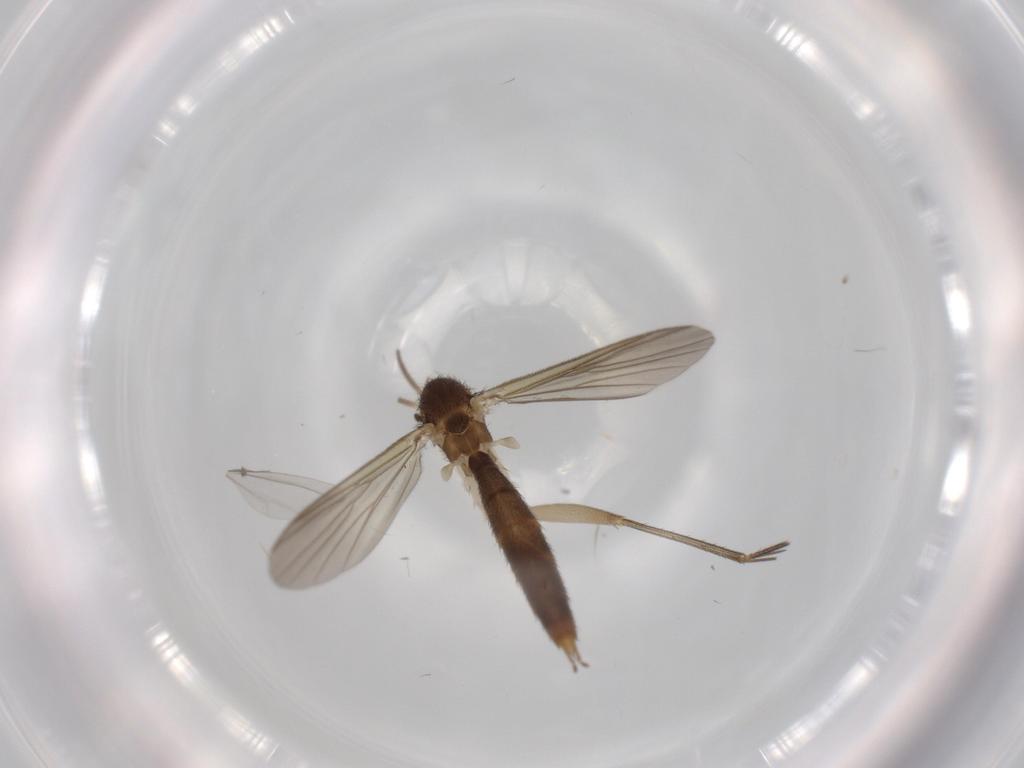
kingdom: Animalia
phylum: Arthropoda
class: Insecta
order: Diptera
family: Mycetophilidae
